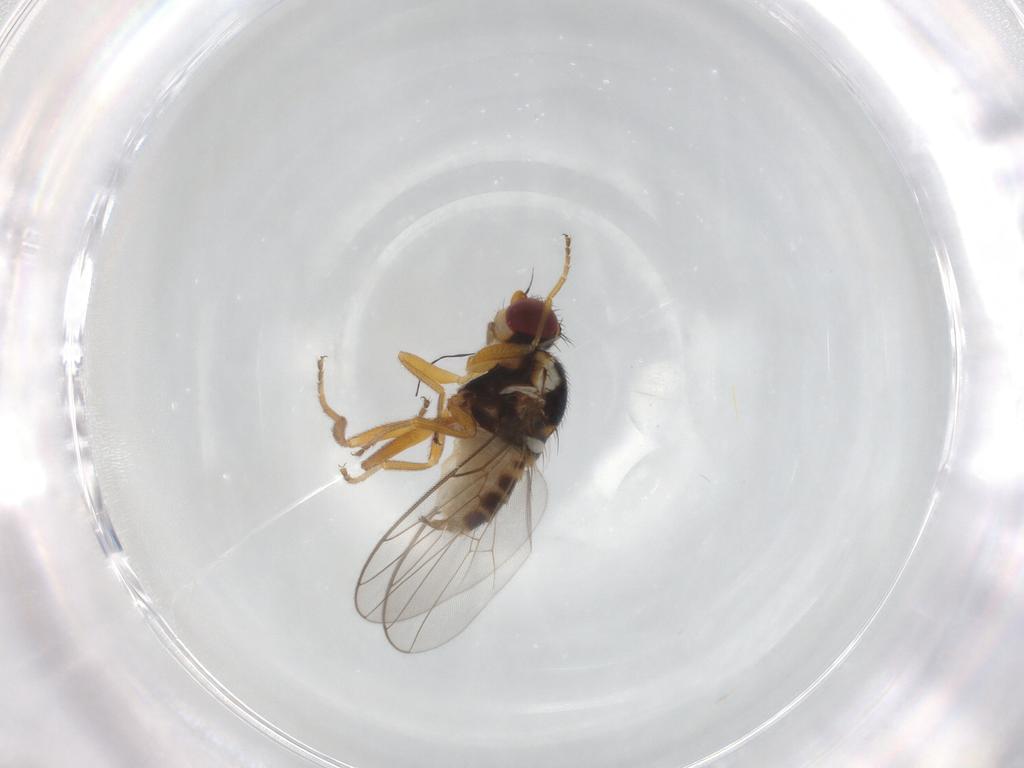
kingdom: Animalia
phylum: Arthropoda
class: Insecta
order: Diptera
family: Chloropidae
